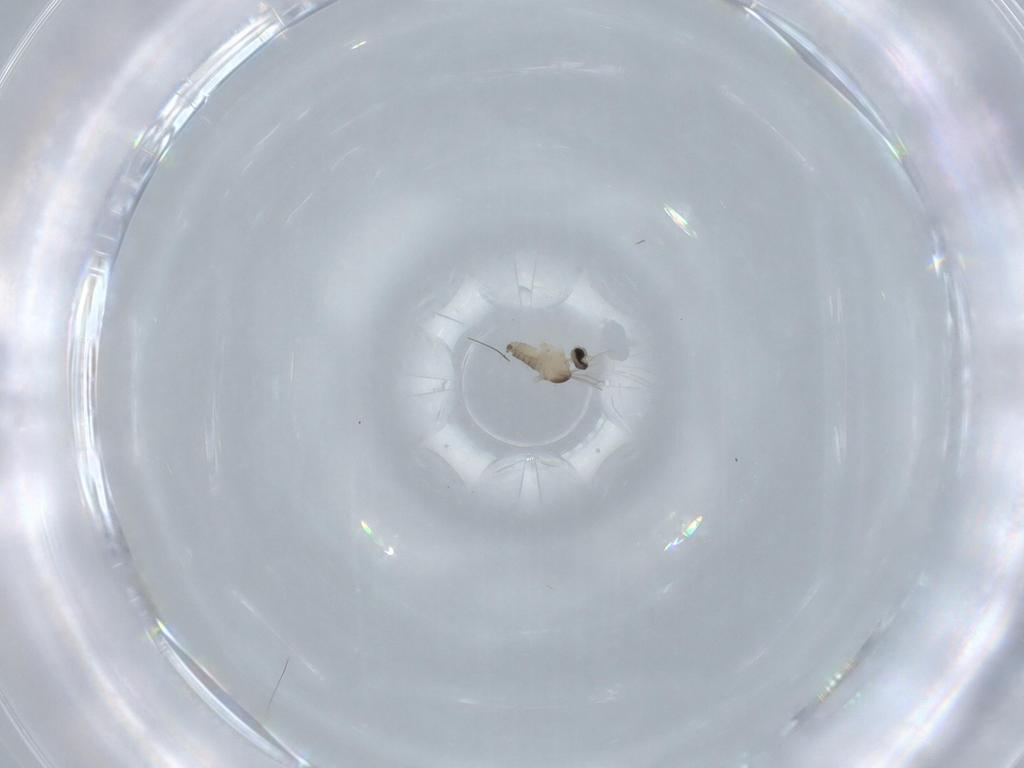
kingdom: Animalia
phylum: Arthropoda
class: Insecta
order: Diptera
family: Cecidomyiidae
